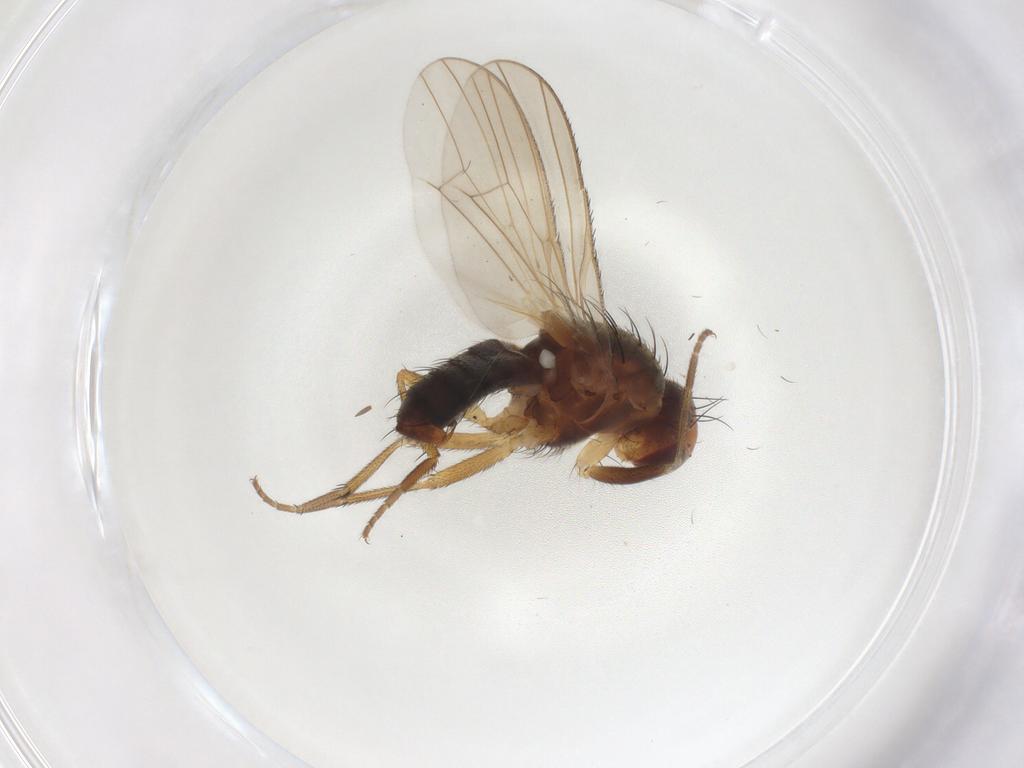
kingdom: Animalia
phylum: Arthropoda
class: Insecta
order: Diptera
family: Heleomyzidae
